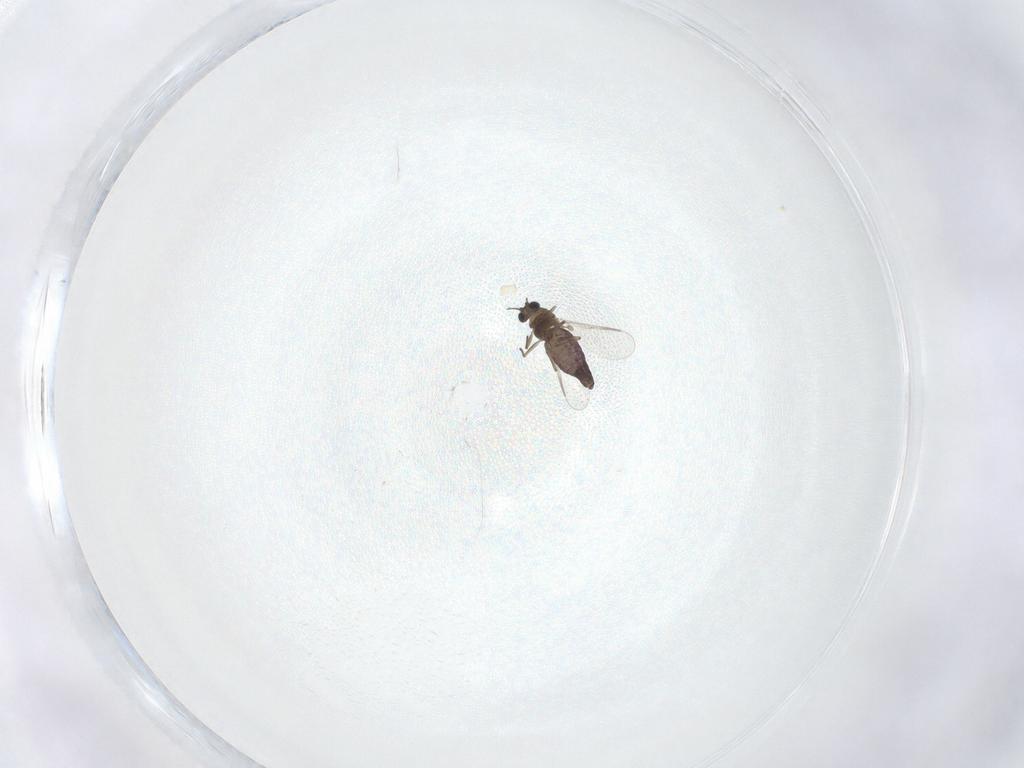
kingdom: Animalia
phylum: Arthropoda
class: Insecta
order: Diptera
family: Chironomidae
